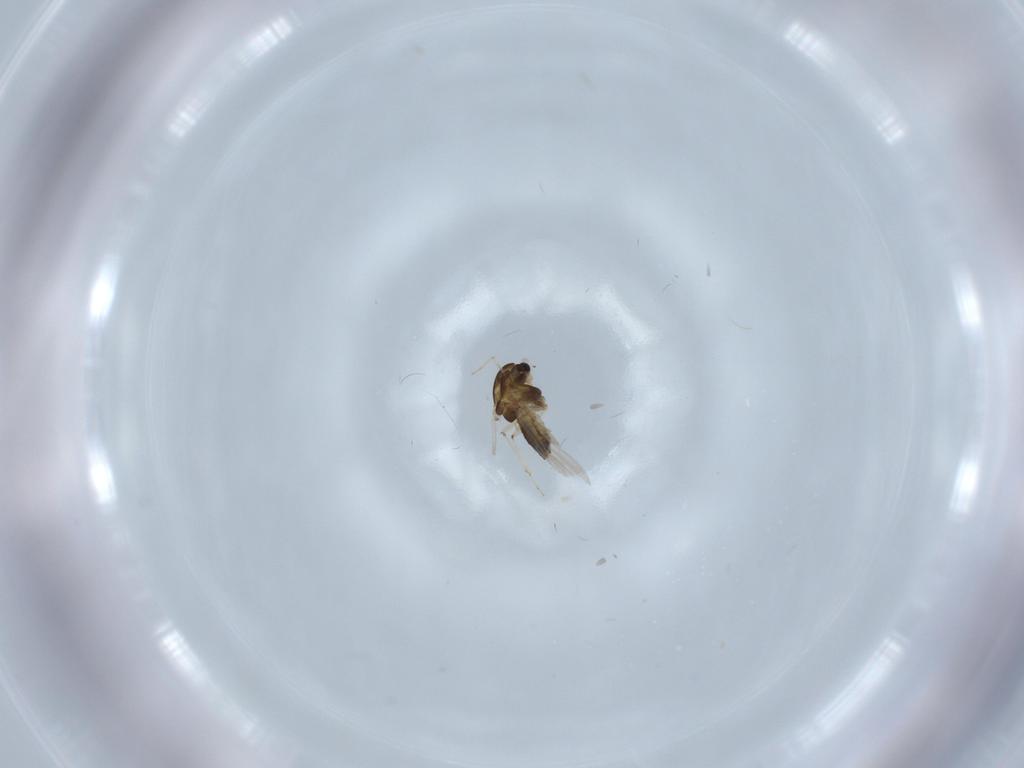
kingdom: Animalia
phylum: Arthropoda
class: Insecta
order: Diptera
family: Chironomidae
